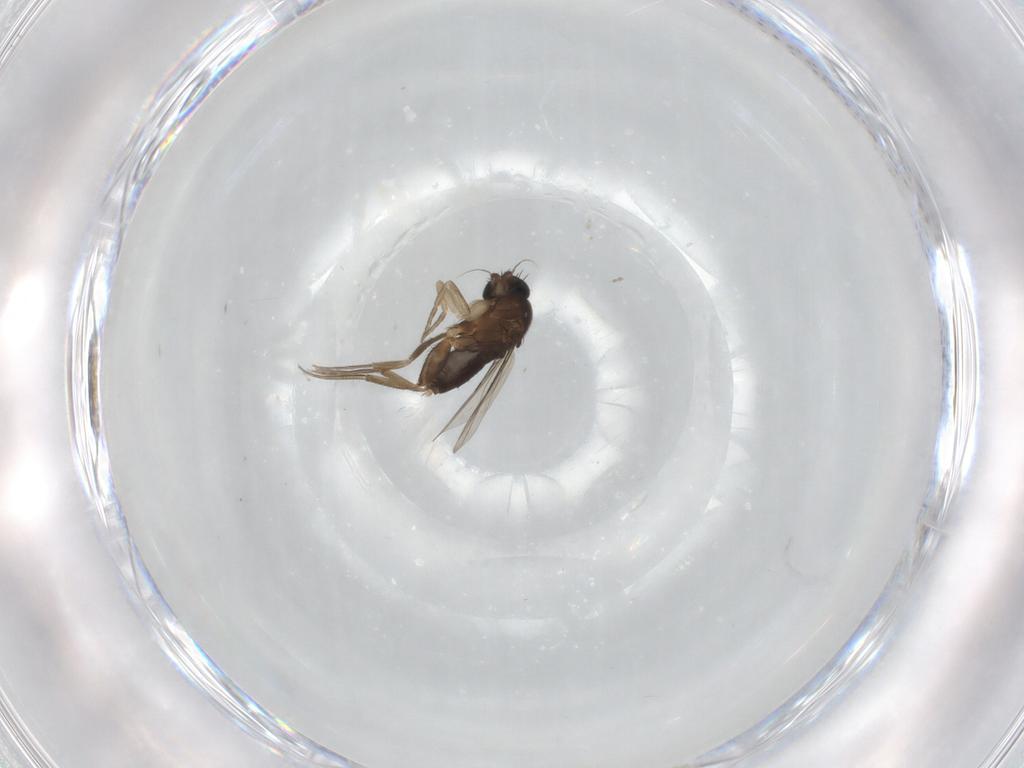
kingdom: Animalia
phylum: Arthropoda
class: Insecta
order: Diptera
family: Phoridae
